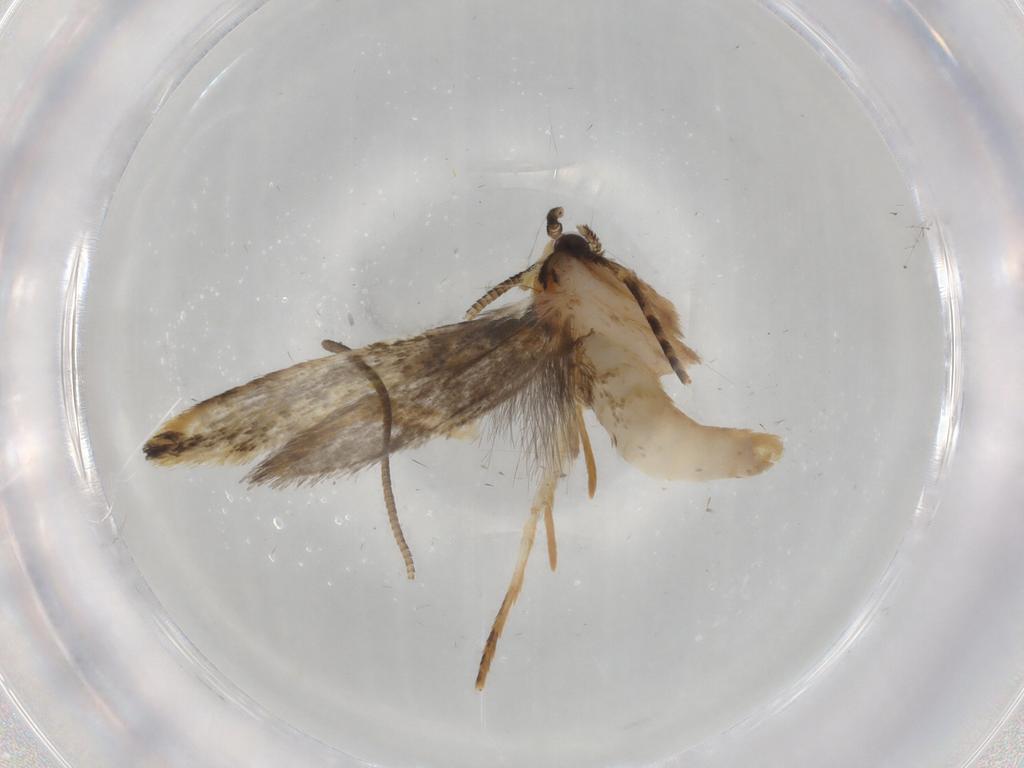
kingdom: Animalia
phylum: Arthropoda
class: Insecta
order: Lepidoptera
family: Tineidae
